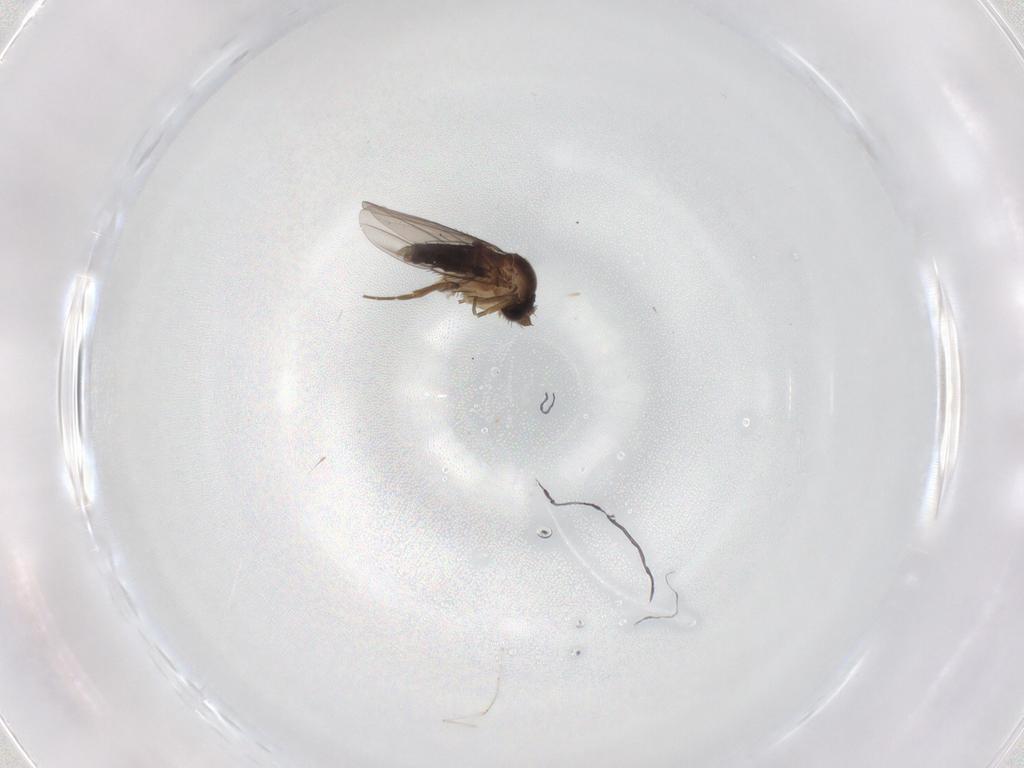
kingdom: Animalia
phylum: Arthropoda
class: Insecta
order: Diptera
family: Phoridae
